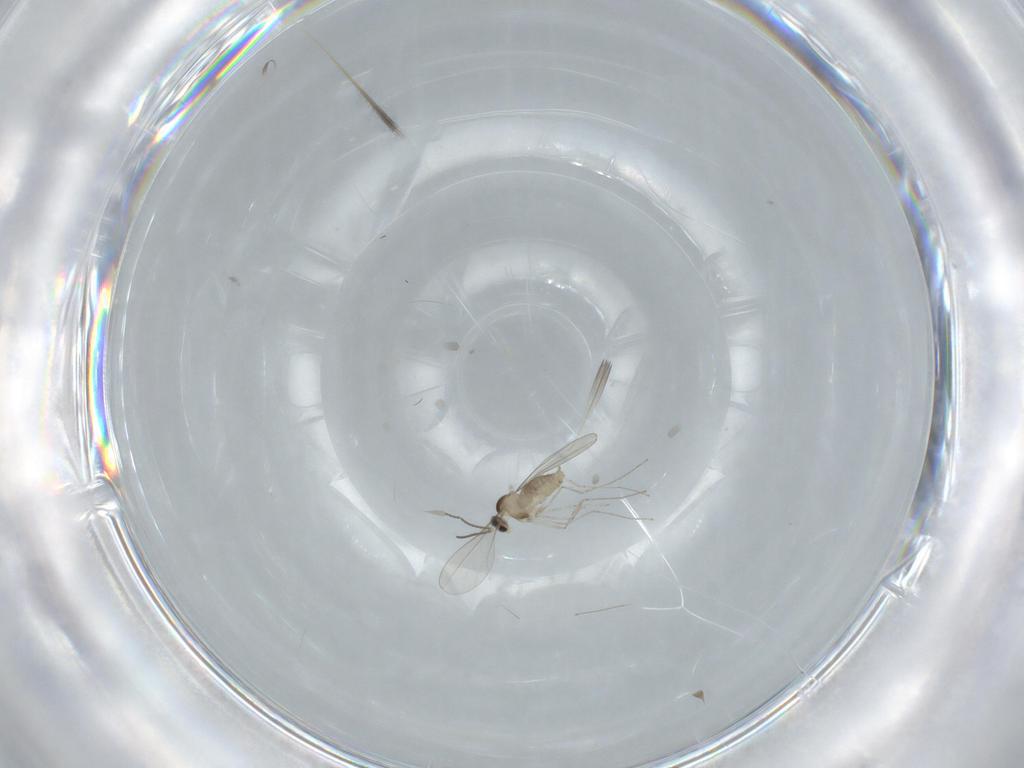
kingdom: Animalia
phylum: Arthropoda
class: Insecta
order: Diptera
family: Cecidomyiidae
